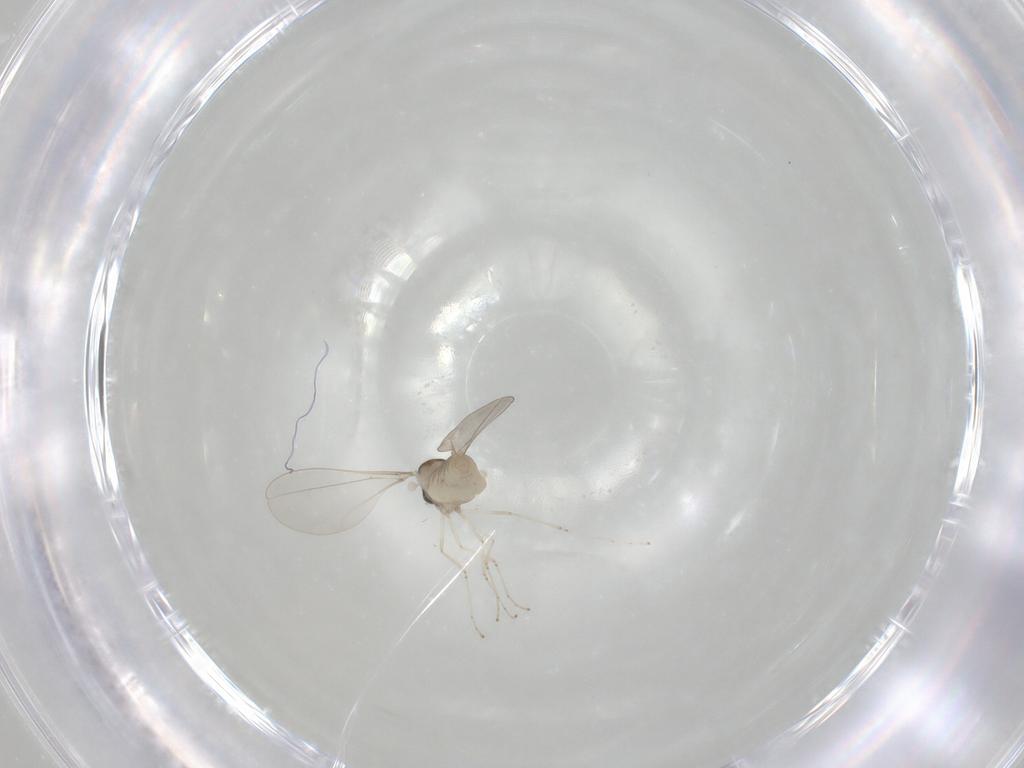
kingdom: Animalia
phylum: Arthropoda
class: Insecta
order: Diptera
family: Cecidomyiidae
